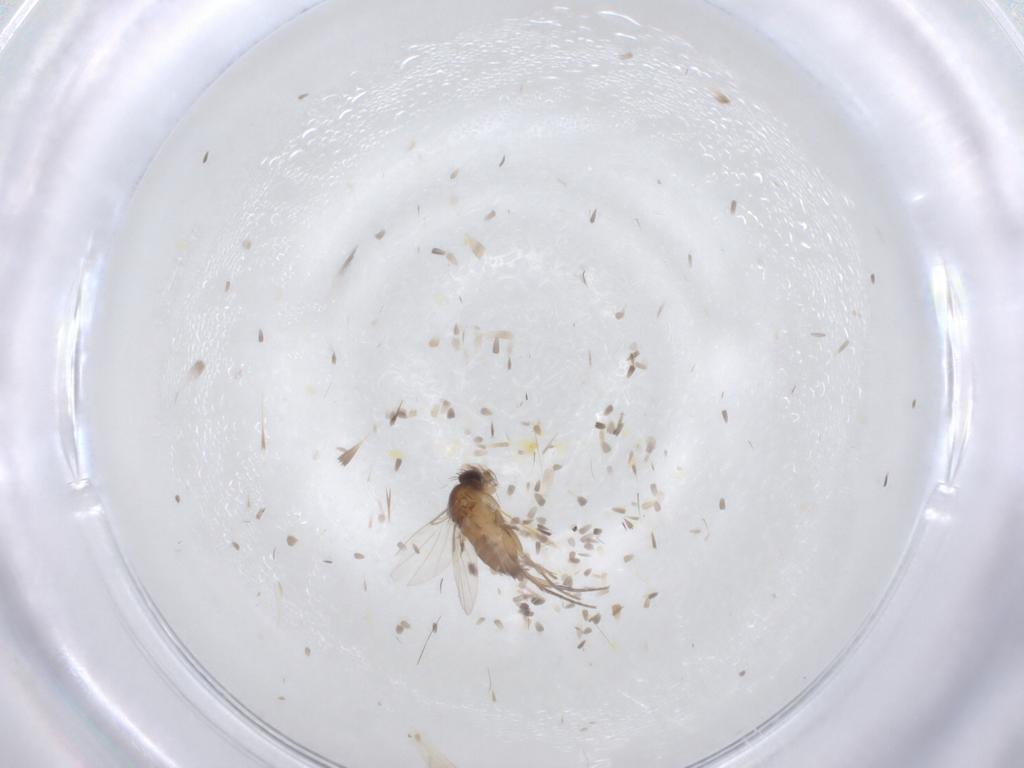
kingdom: Animalia
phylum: Arthropoda
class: Insecta
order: Diptera
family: Phoridae
